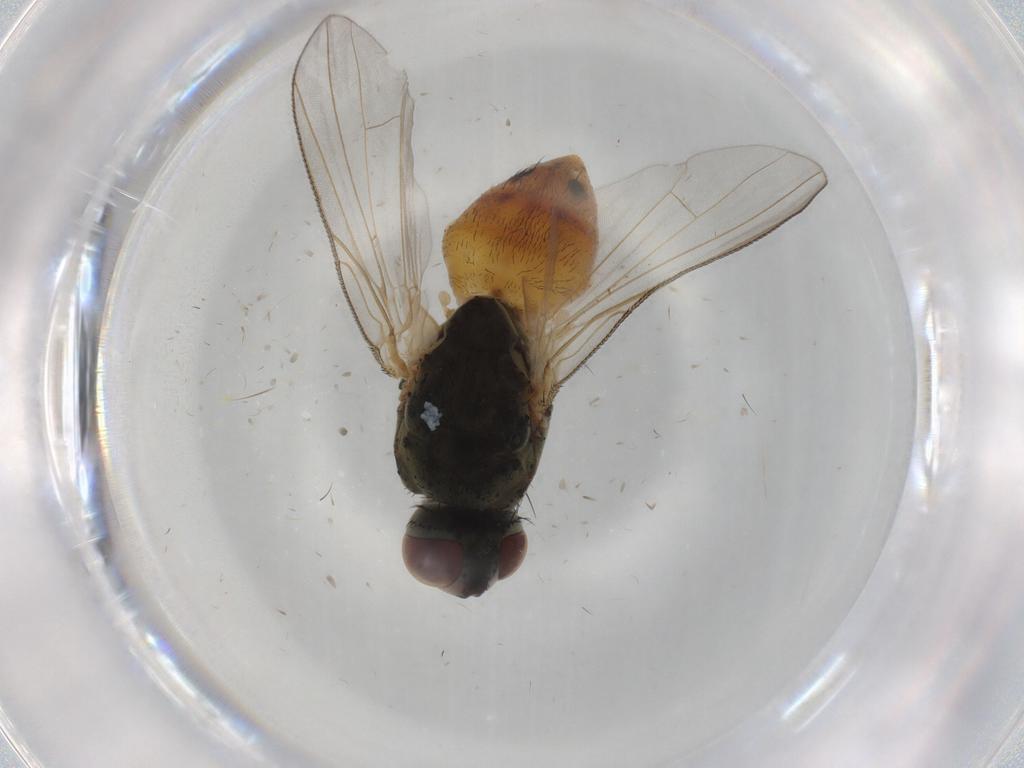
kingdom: Animalia
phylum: Arthropoda
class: Insecta
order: Diptera
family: Muscidae
